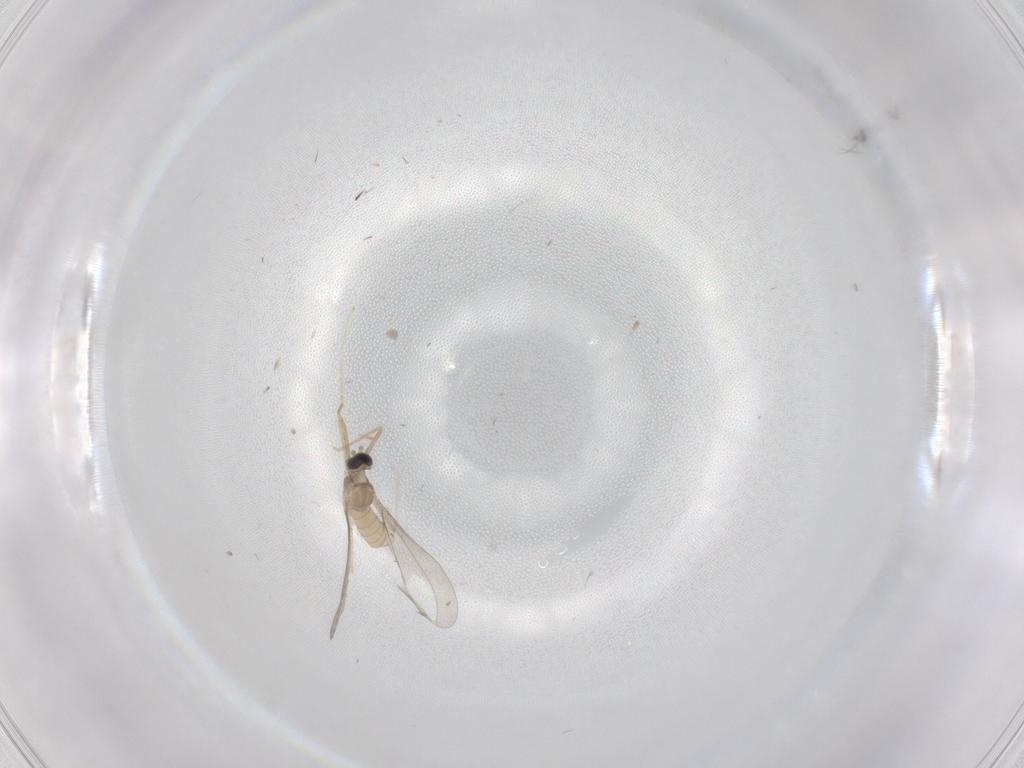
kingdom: Animalia
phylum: Arthropoda
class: Insecta
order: Diptera
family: Cecidomyiidae
